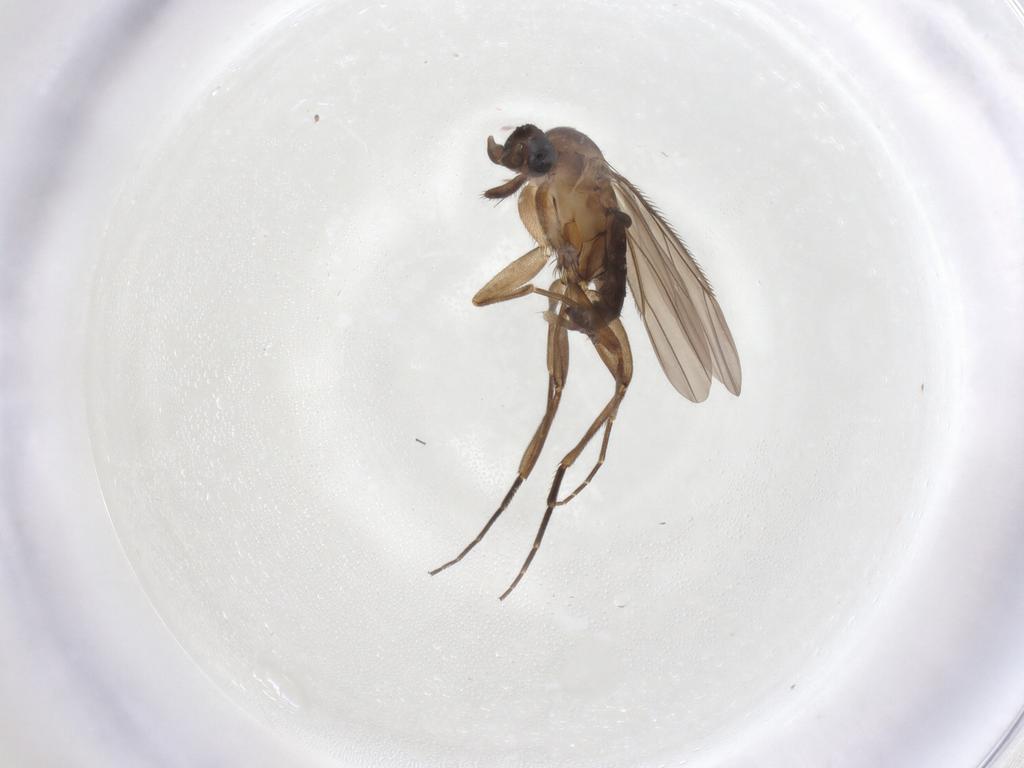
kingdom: Animalia
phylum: Arthropoda
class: Insecta
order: Diptera
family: Phoridae
